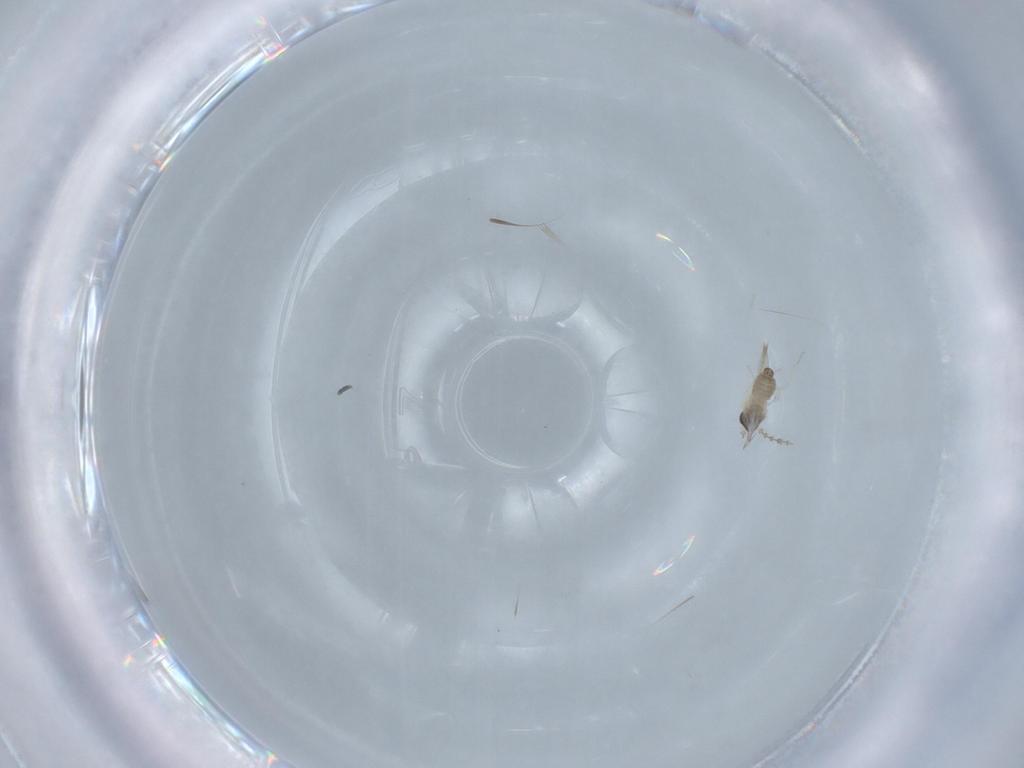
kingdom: Animalia
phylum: Arthropoda
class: Insecta
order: Diptera
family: Cecidomyiidae
